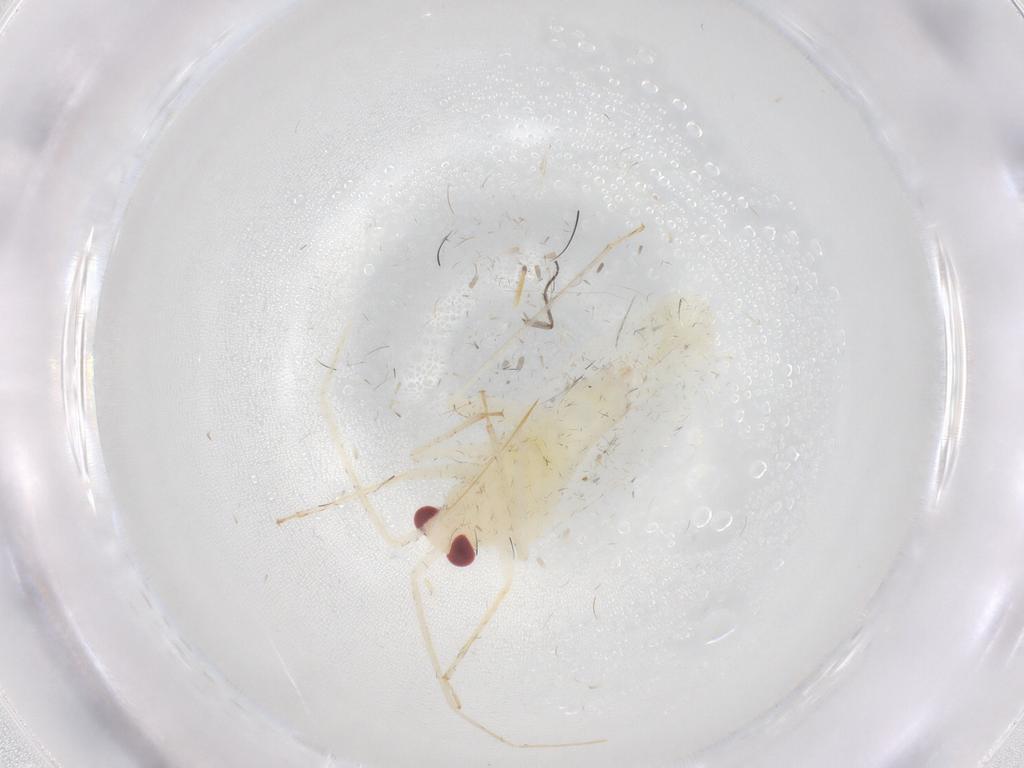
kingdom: Animalia
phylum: Arthropoda
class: Insecta
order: Hemiptera
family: Miridae
